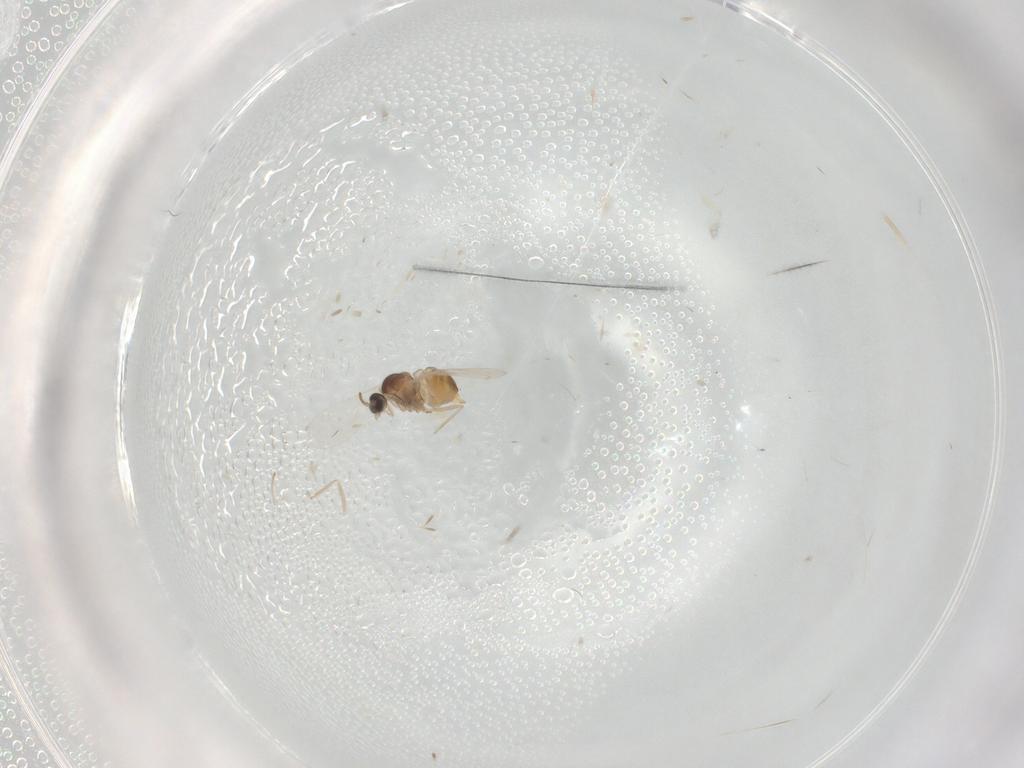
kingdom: Animalia
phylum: Arthropoda
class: Insecta
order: Diptera
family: Cecidomyiidae
